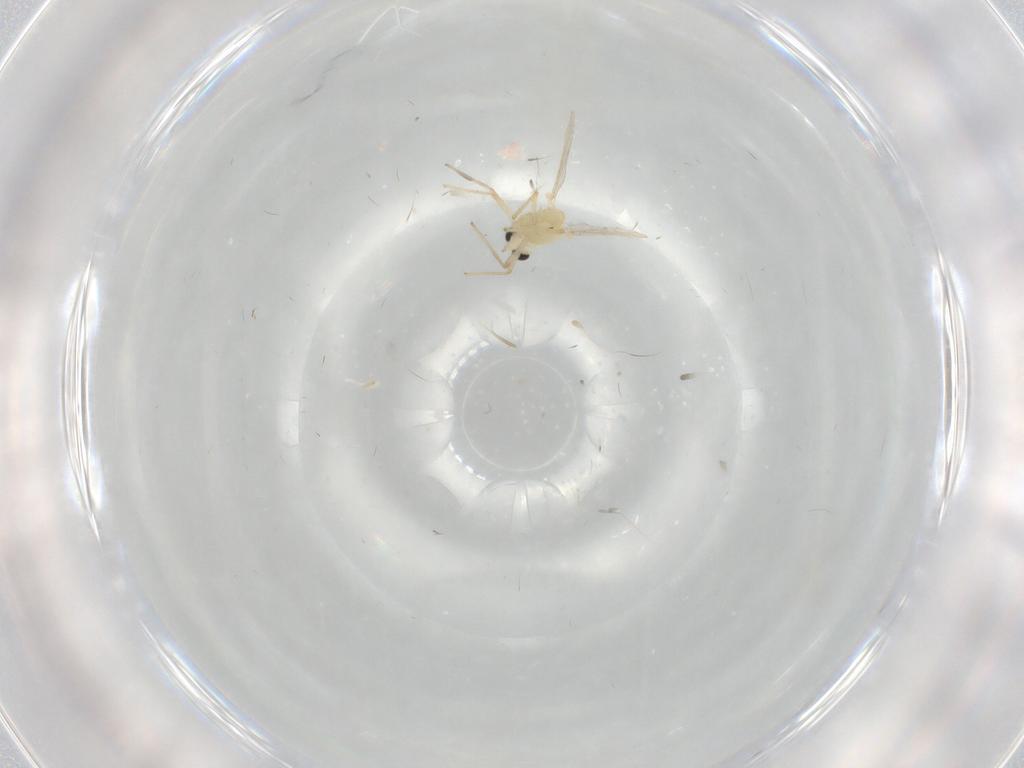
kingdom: Animalia
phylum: Arthropoda
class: Insecta
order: Diptera
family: Chironomidae
